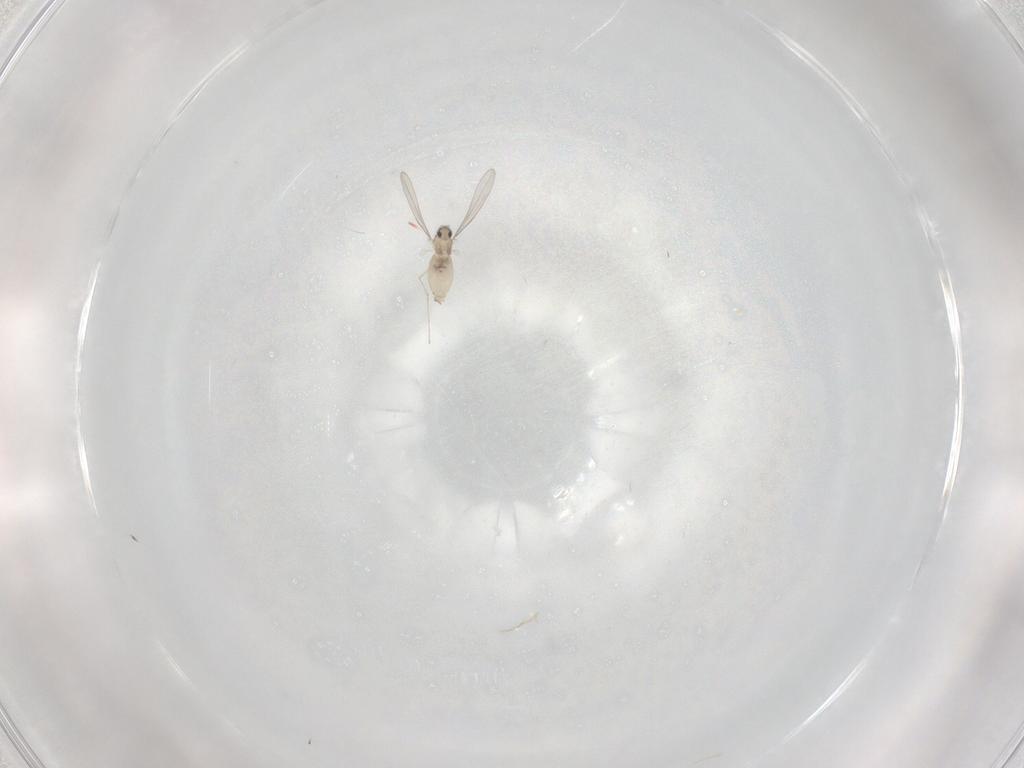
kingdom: Animalia
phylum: Arthropoda
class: Insecta
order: Diptera
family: Cecidomyiidae
